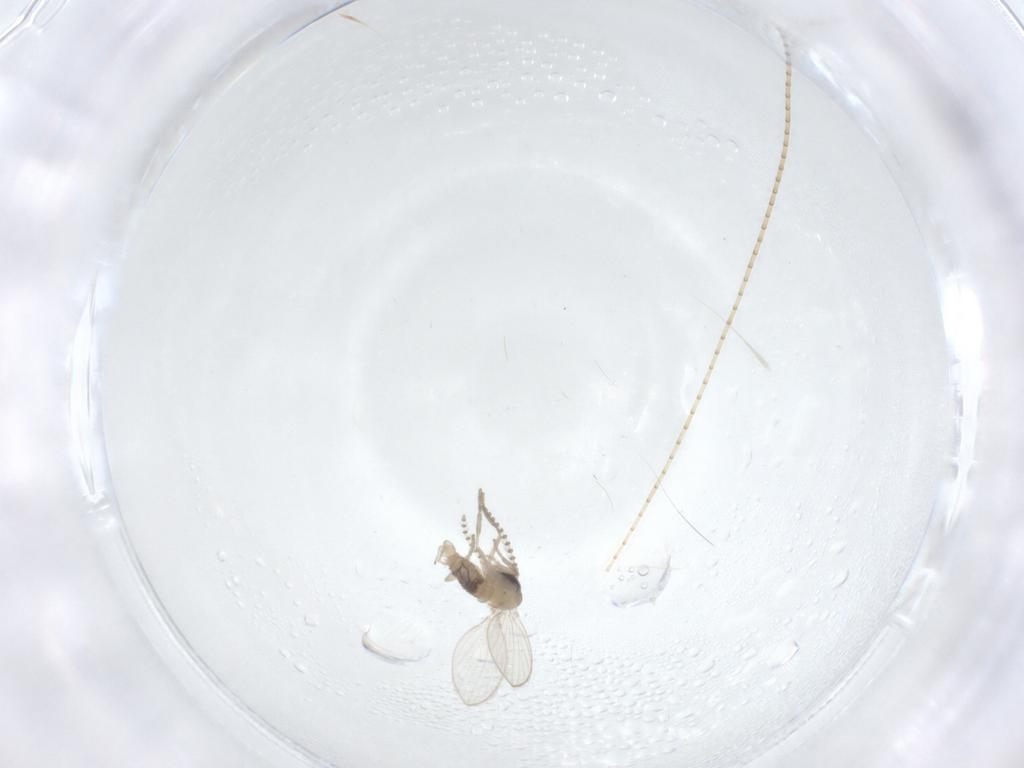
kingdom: Animalia
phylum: Arthropoda
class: Insecta
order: Diptera
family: Psychodidae
